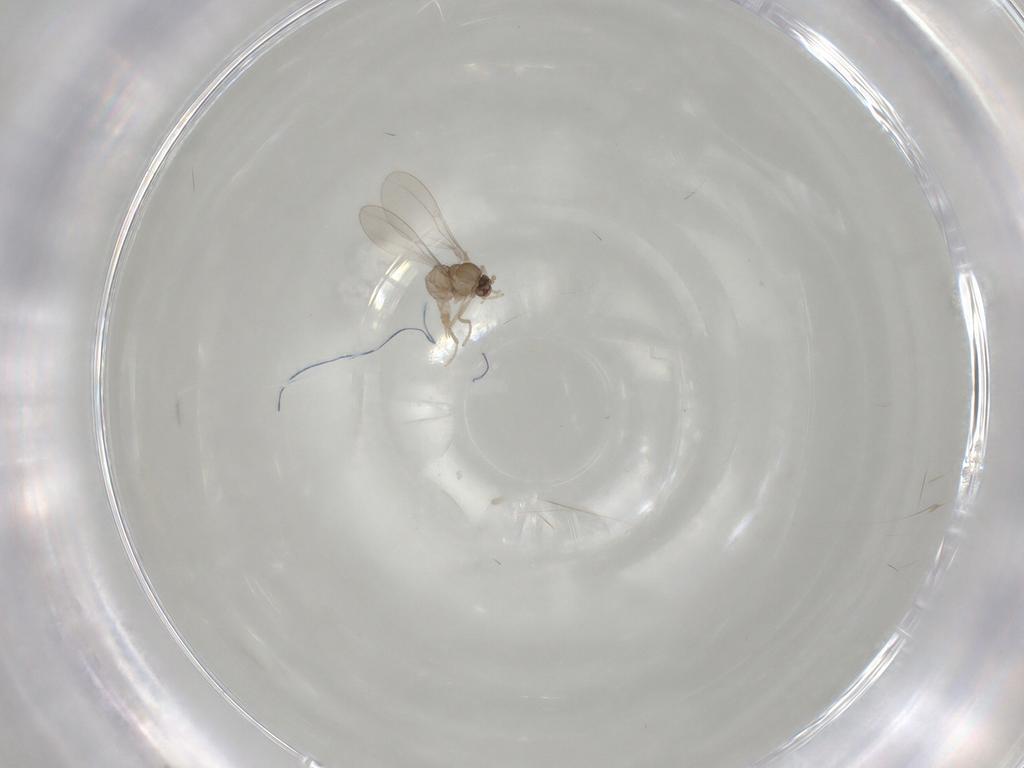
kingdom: Animalia
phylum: Arthropoda
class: Insecta
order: Diptera
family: Cecidomyiidae
